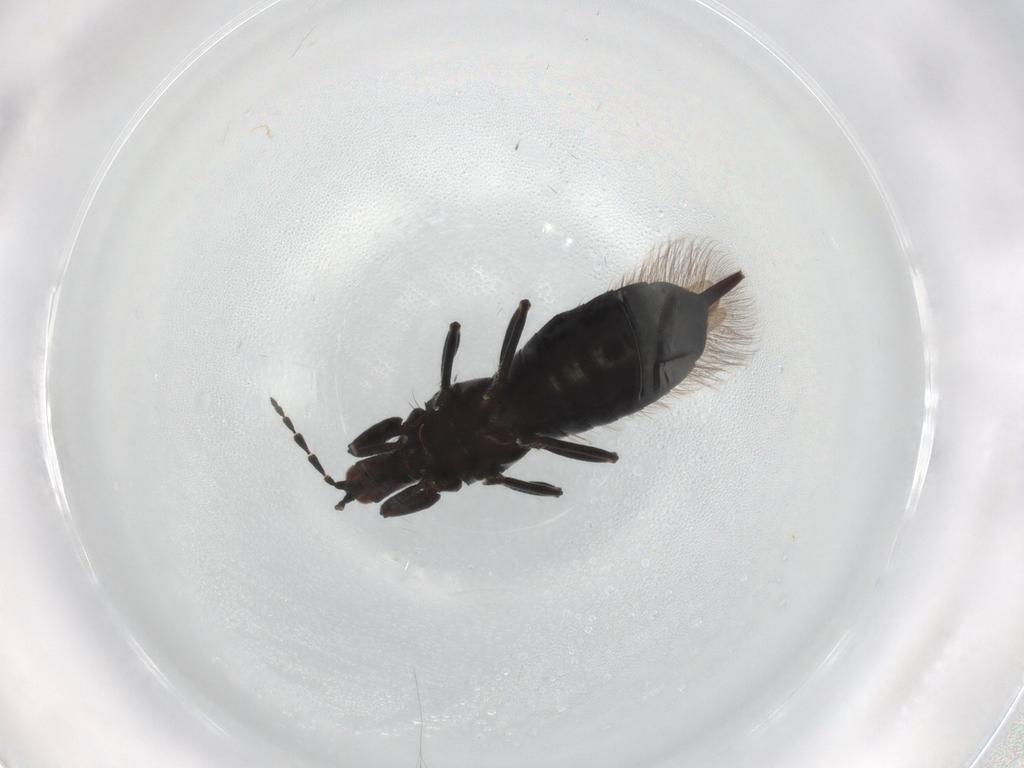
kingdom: Animalia
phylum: Arthropoda
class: Insecta
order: Thysanoptera
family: Phlaeothripidae
